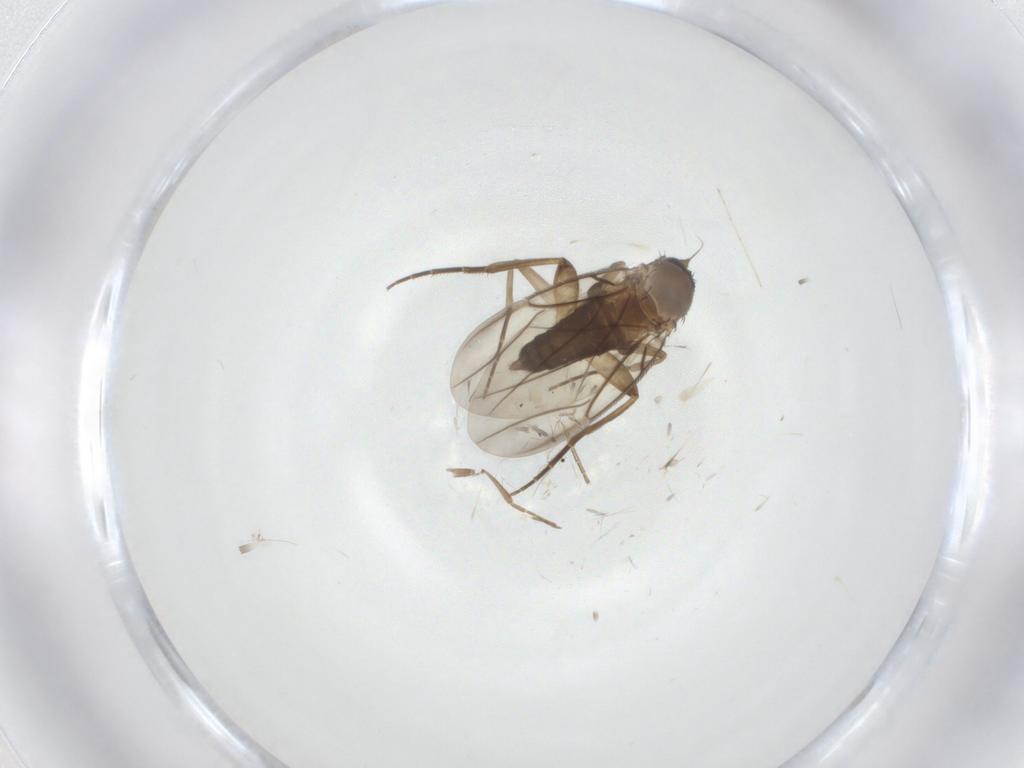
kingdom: Animalia
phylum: Arthropoda
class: Insecta
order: Diptera
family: Phoridae
